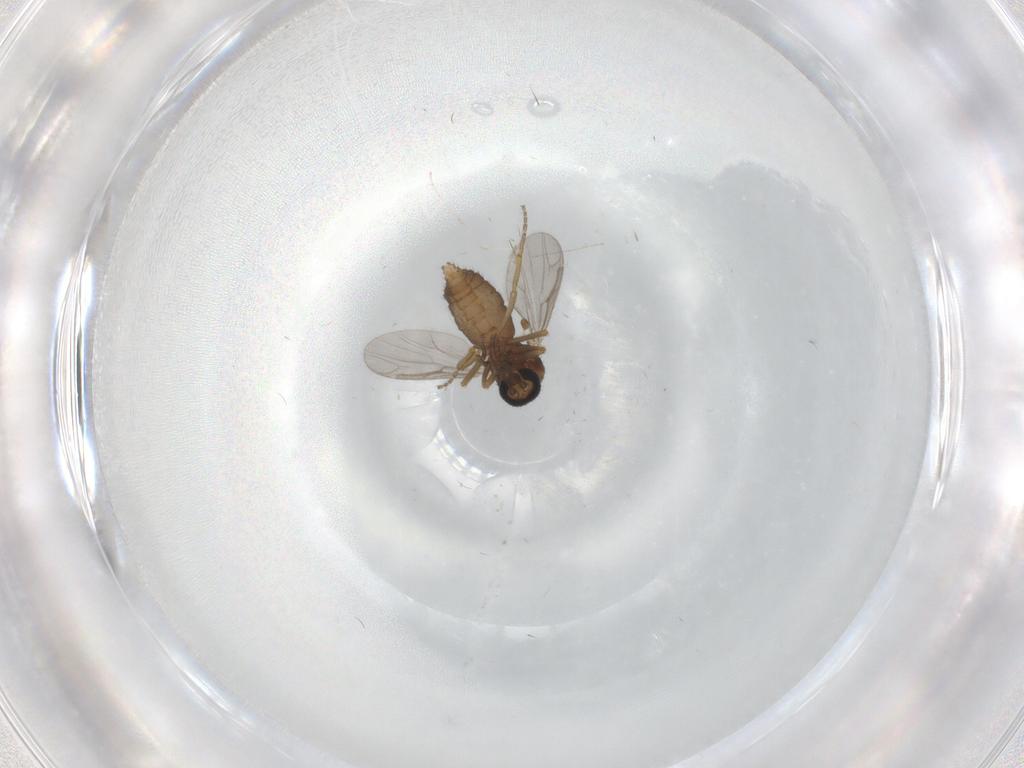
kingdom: Animalia
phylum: Arthropoda
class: Insecta
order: Diptera
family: Ceratopogonidae
